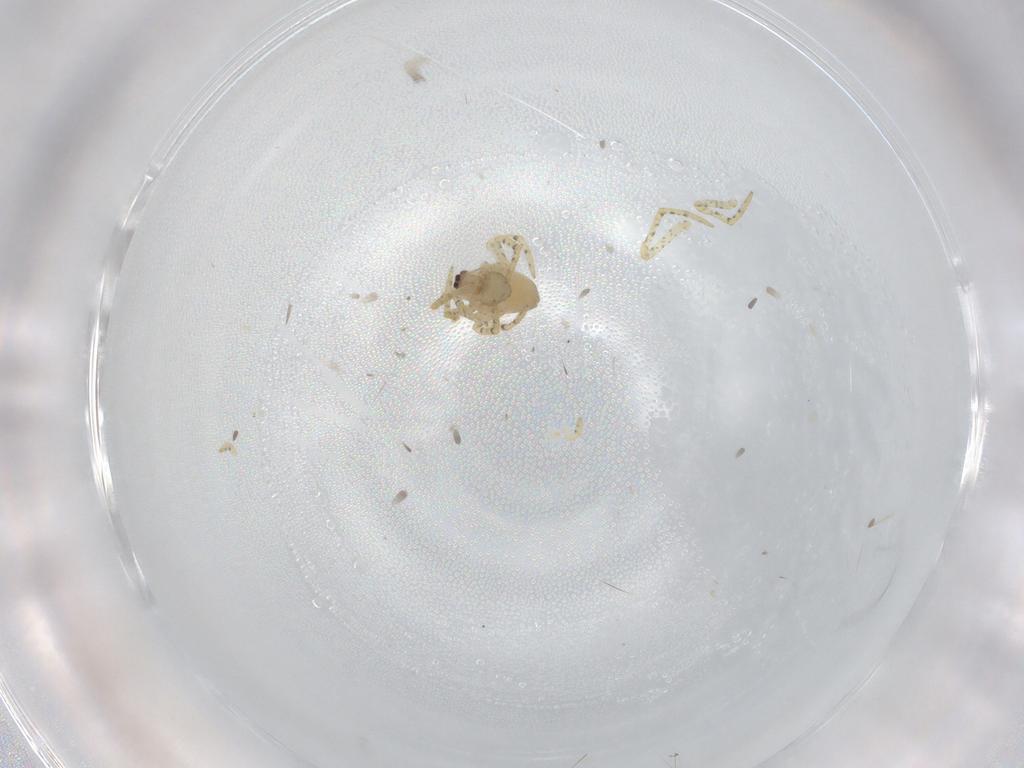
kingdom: Animalia
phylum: Arthropoda
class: Arachnida
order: Araneae
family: Theridiidae
